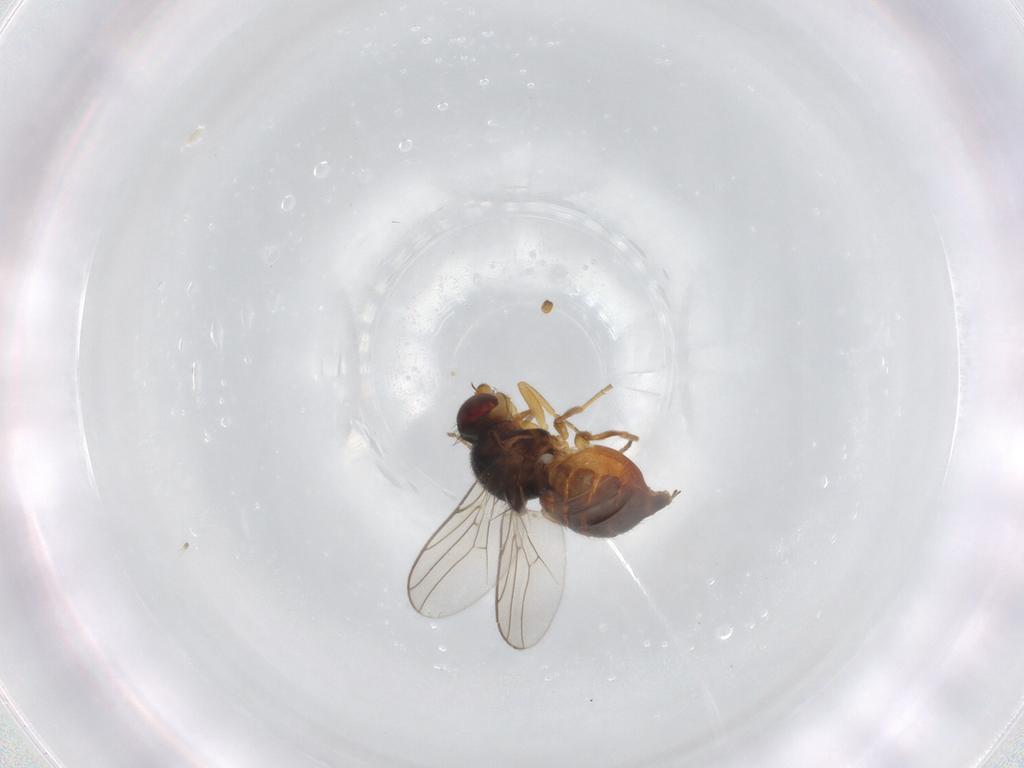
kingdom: Animalia
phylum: Arthropoda
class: Insecta
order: Diptera
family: Chloropidae
